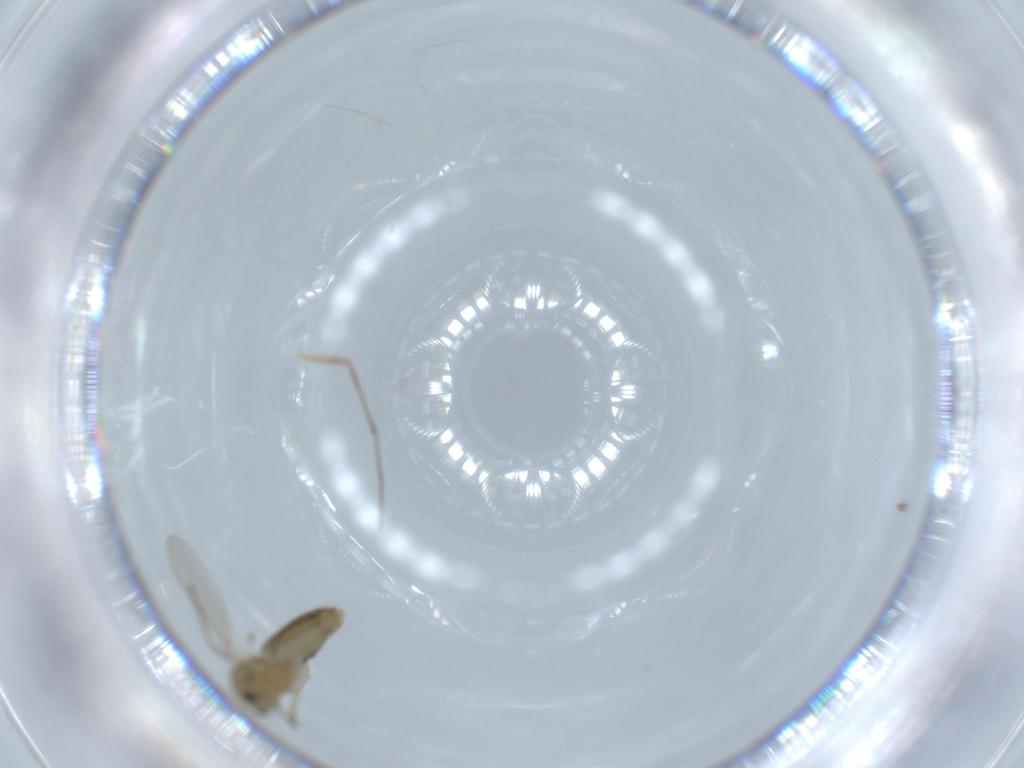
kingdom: Animalia
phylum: Arthropoda
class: Insecta
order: Diptera
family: Chironomidae
